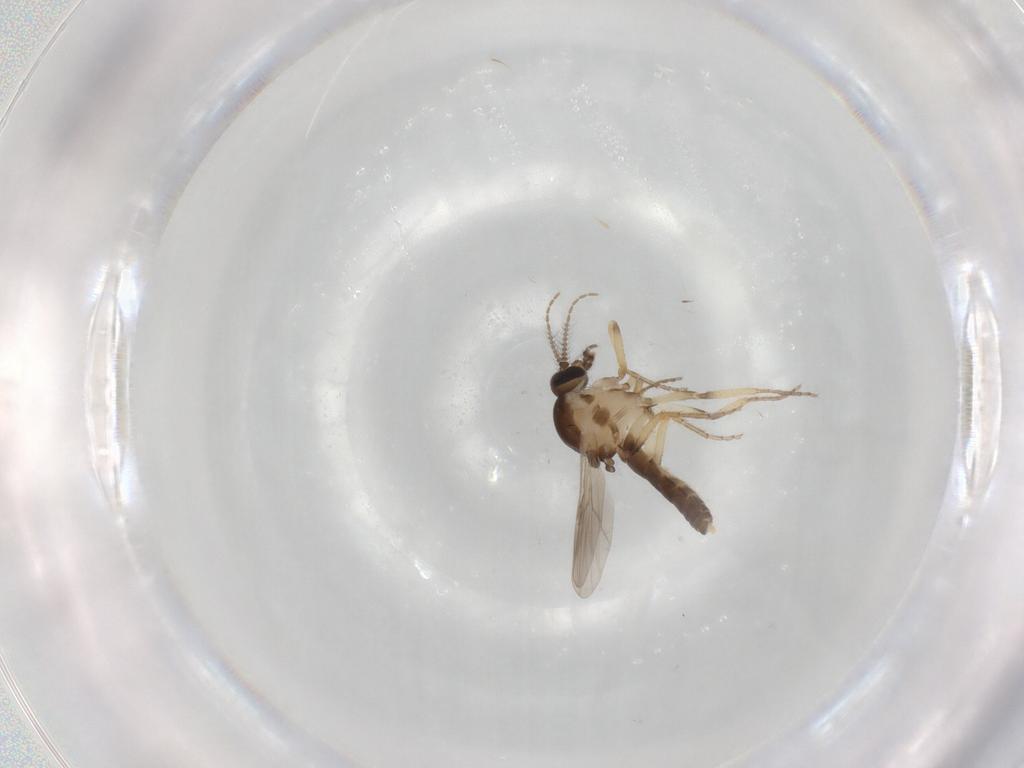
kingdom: Animalia
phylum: Arthropoda
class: Insecta
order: Diptera
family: Ceratopogonidae
